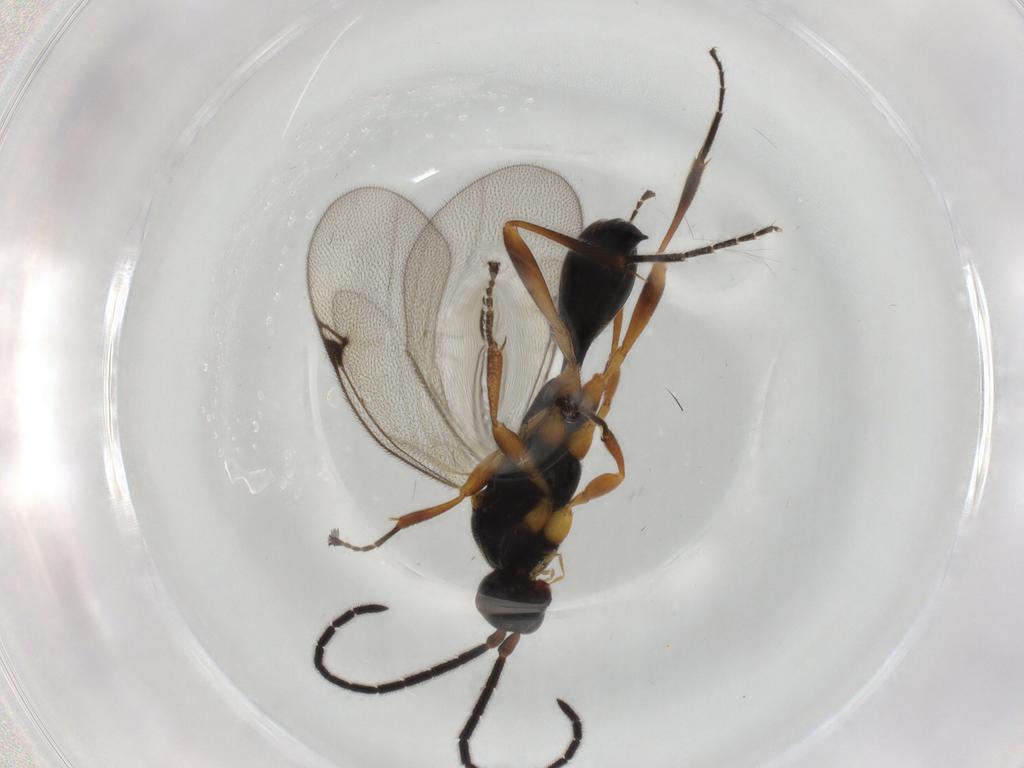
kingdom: Animalia
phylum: Arthropoda
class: Insecta
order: Hymenoptera
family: Proctotrupidae
